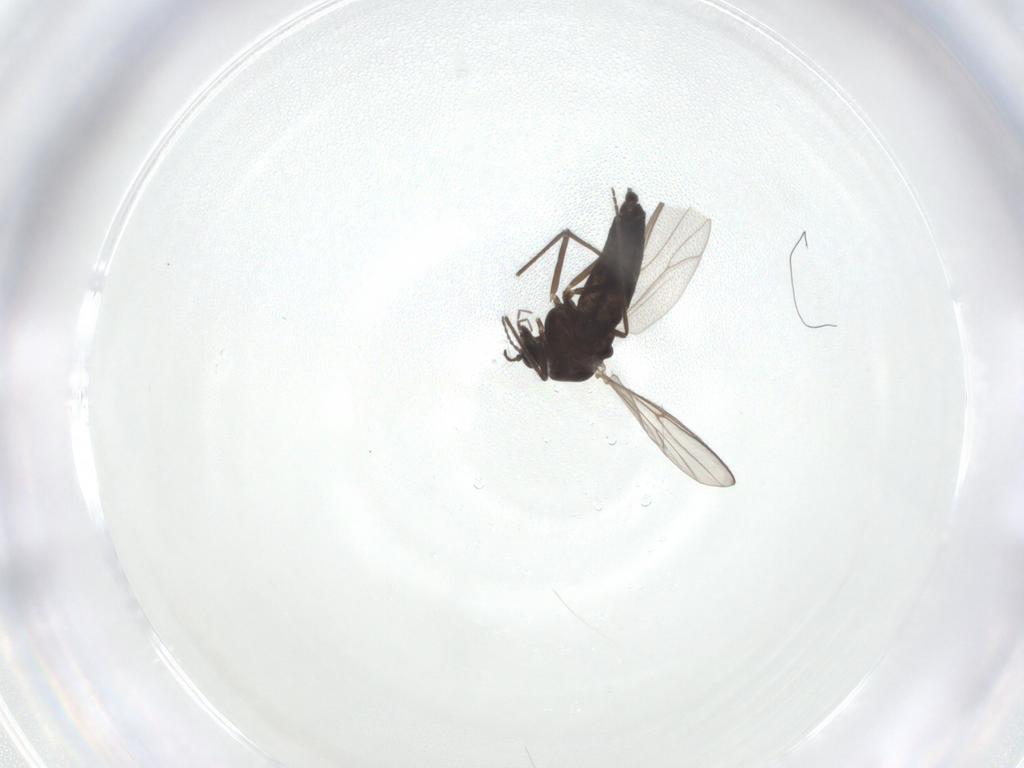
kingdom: Animalia
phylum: Arthropoda
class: Insecta
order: Diptera
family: Chironomidae
